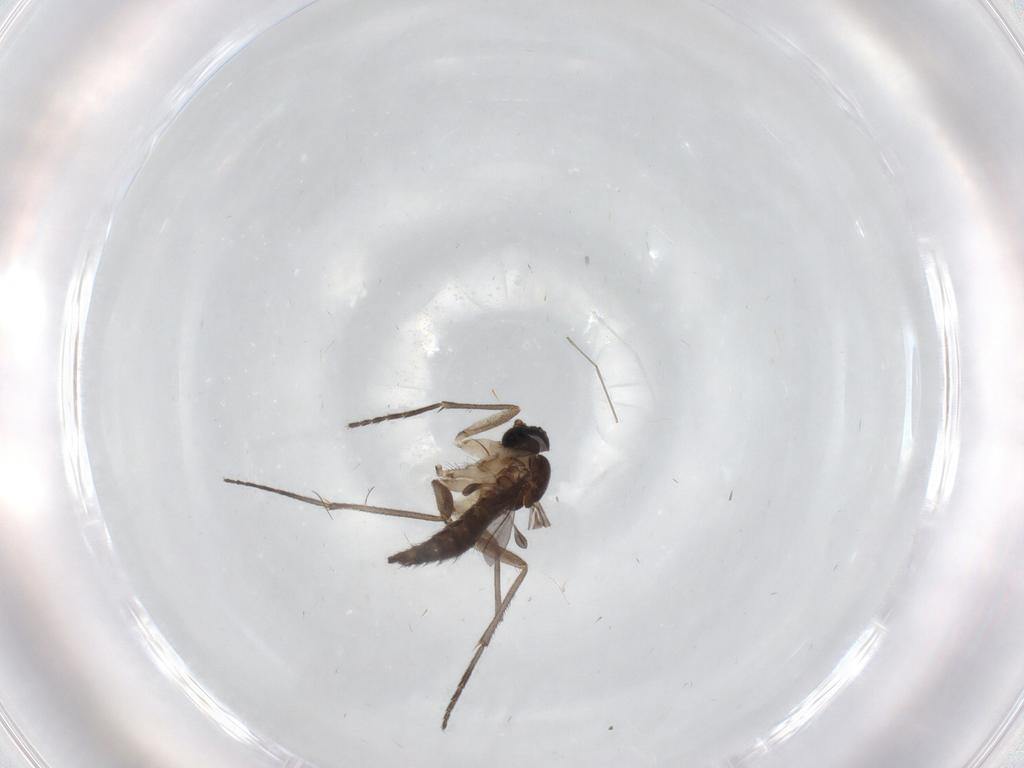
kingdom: Animalia
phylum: Arthropoda
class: Insecta
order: Diptera
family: Sciaridae
